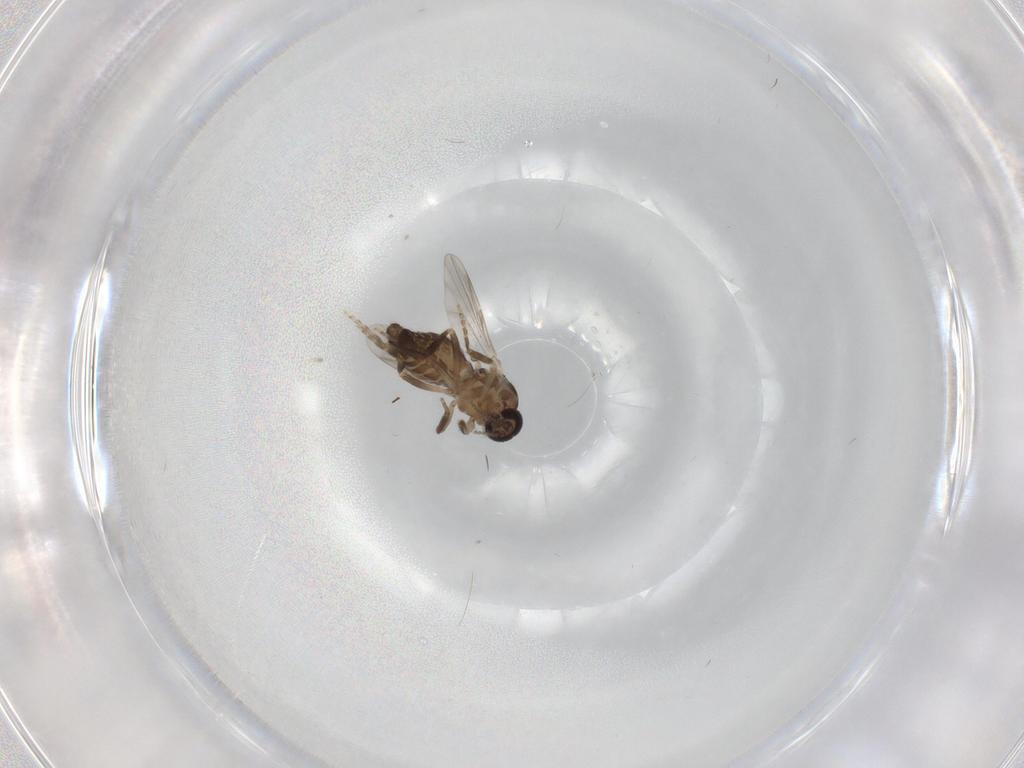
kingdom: Animalia
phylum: Arthropoda
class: Insecta
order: Diptera
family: Ceratopogonidae
